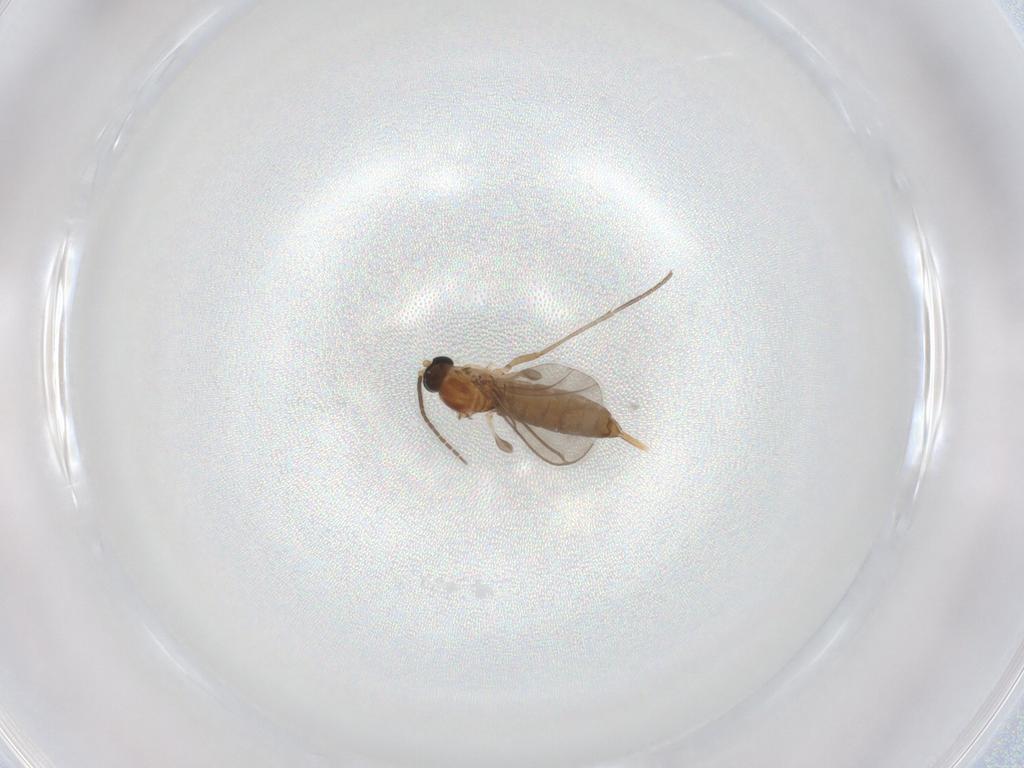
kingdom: Animalia
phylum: Arthropoda
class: Insecta
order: Diptera
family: Sciaridae
